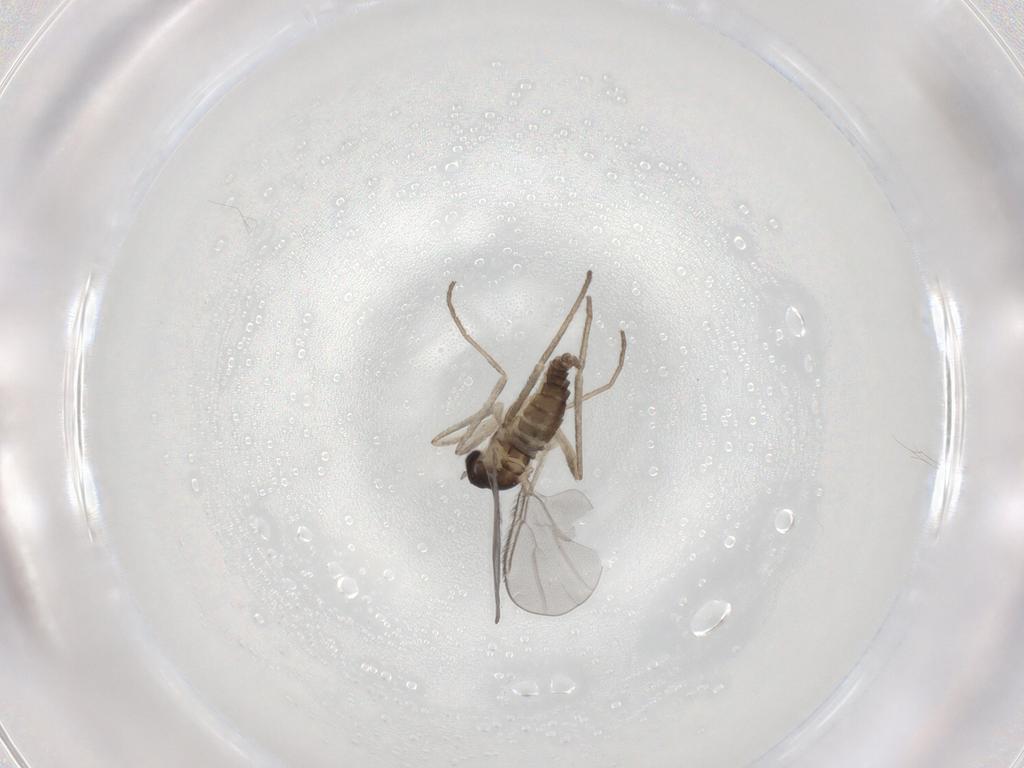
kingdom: Animalia
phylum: Arthropoda
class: Insecta
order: Diptera
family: Cecidomyiidae
